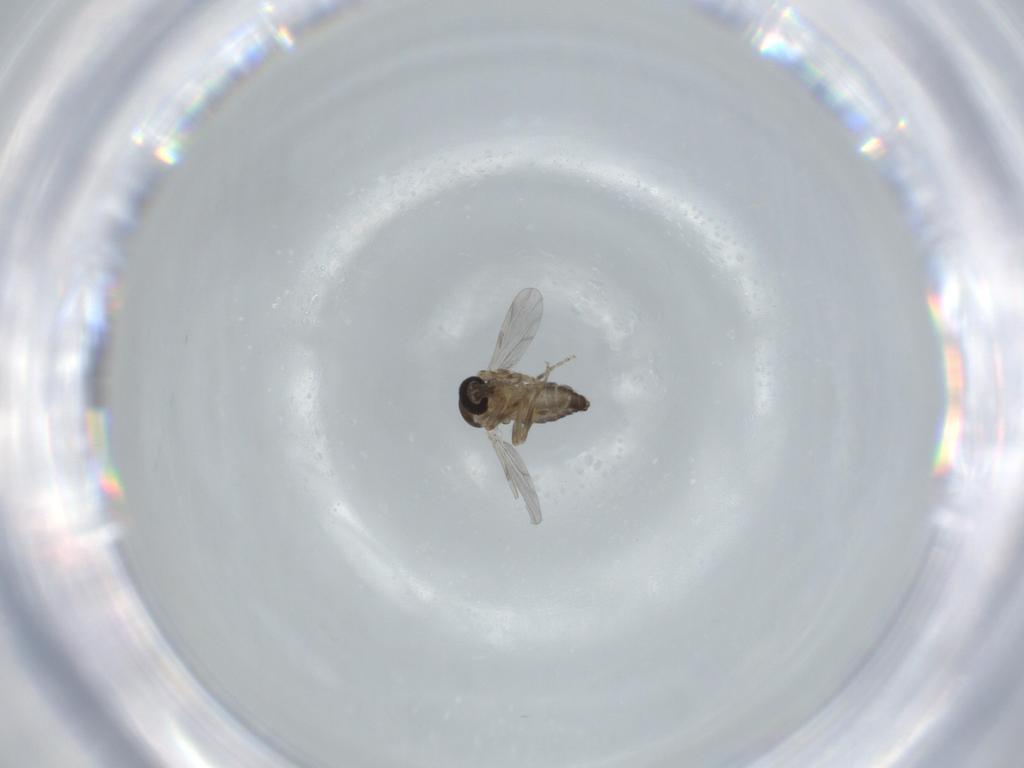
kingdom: Animalia
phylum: Arthropoda
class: Insecta
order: Diptera
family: Ceratopogonidae
